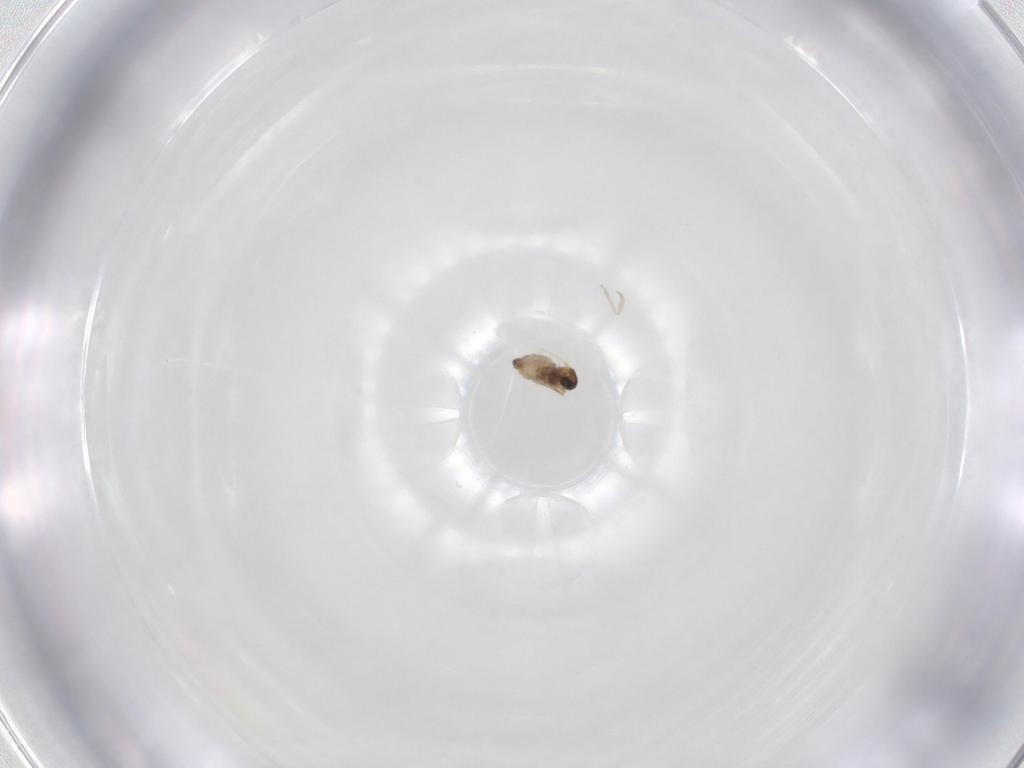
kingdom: Animalia
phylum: Arthropoda
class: Insecta
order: Diptera
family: Cecidomyiidae
